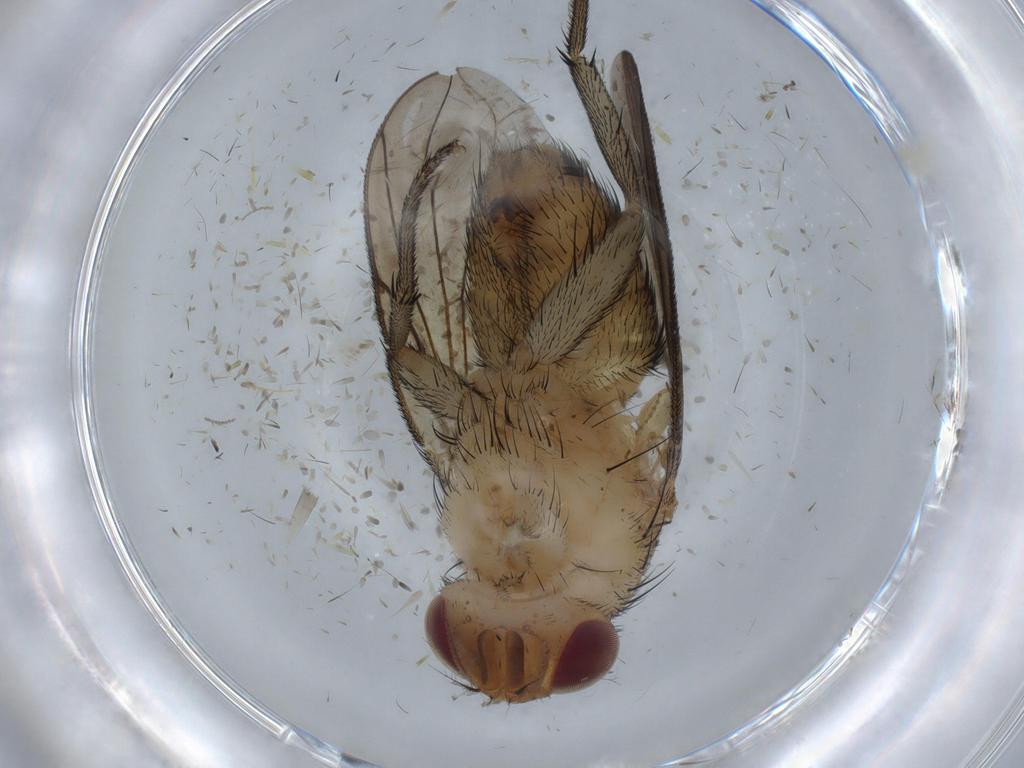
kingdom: Animalia
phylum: Arthropoda
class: Insecta
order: Diptera
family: Calliphoridae
